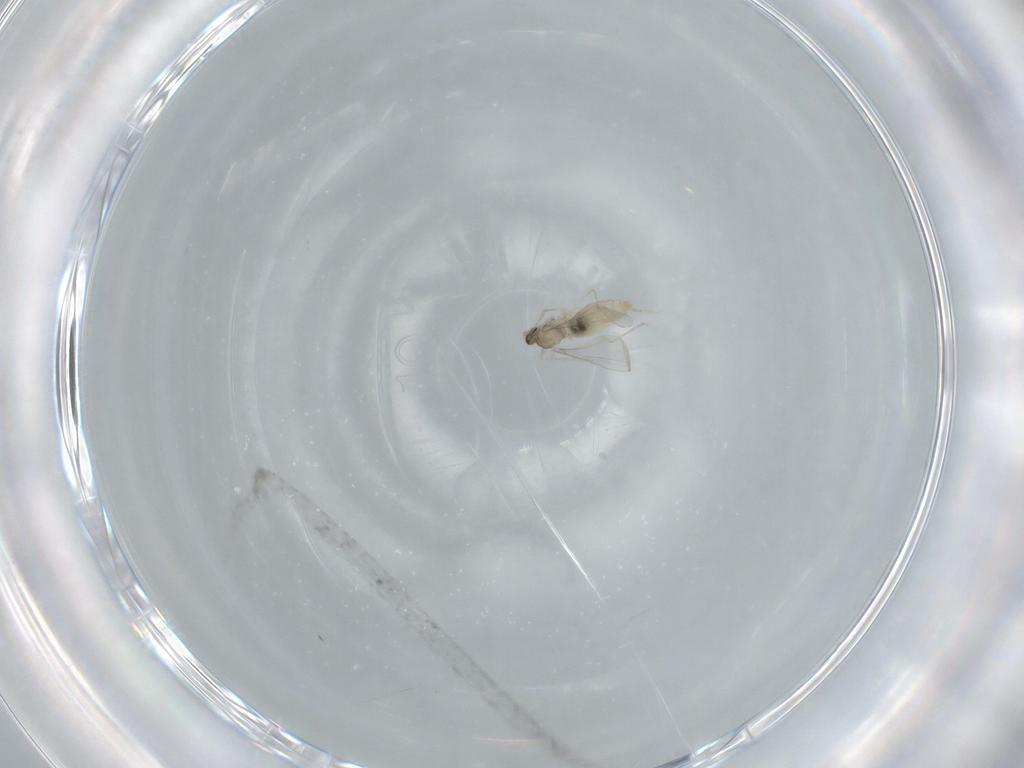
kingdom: Animalia
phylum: Arthropoda
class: Insecta
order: Diptera
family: Cecidomyiidae
